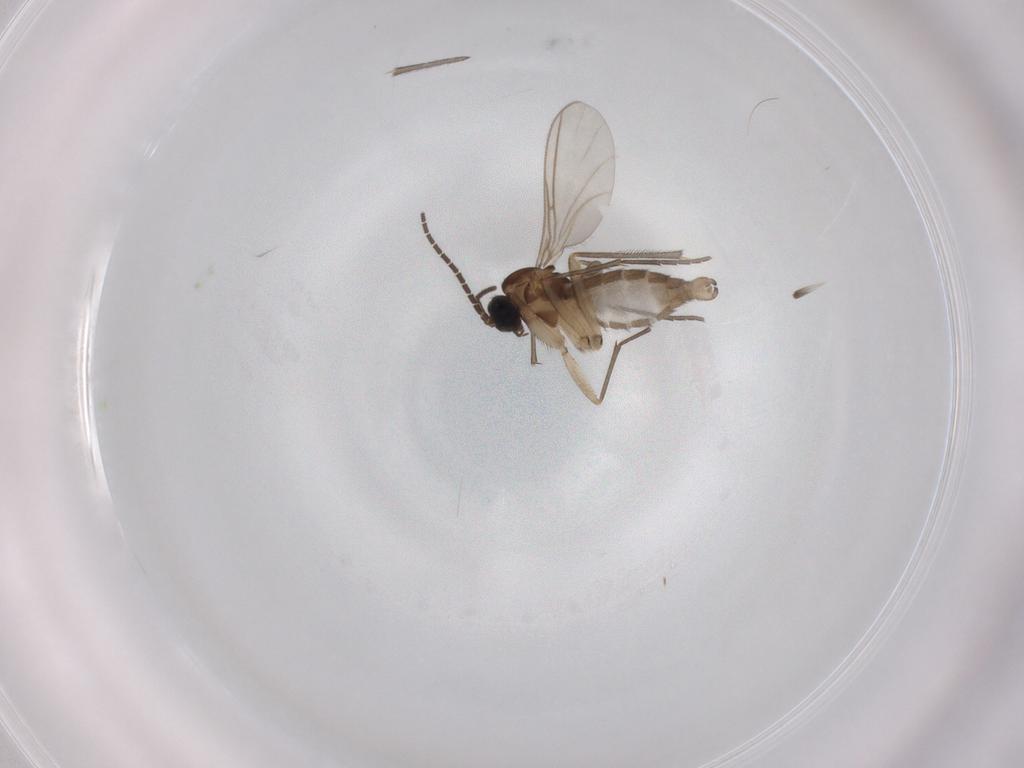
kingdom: Animalia
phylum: Arthropoda
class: Insecta
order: Diptera
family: Sciaridae
